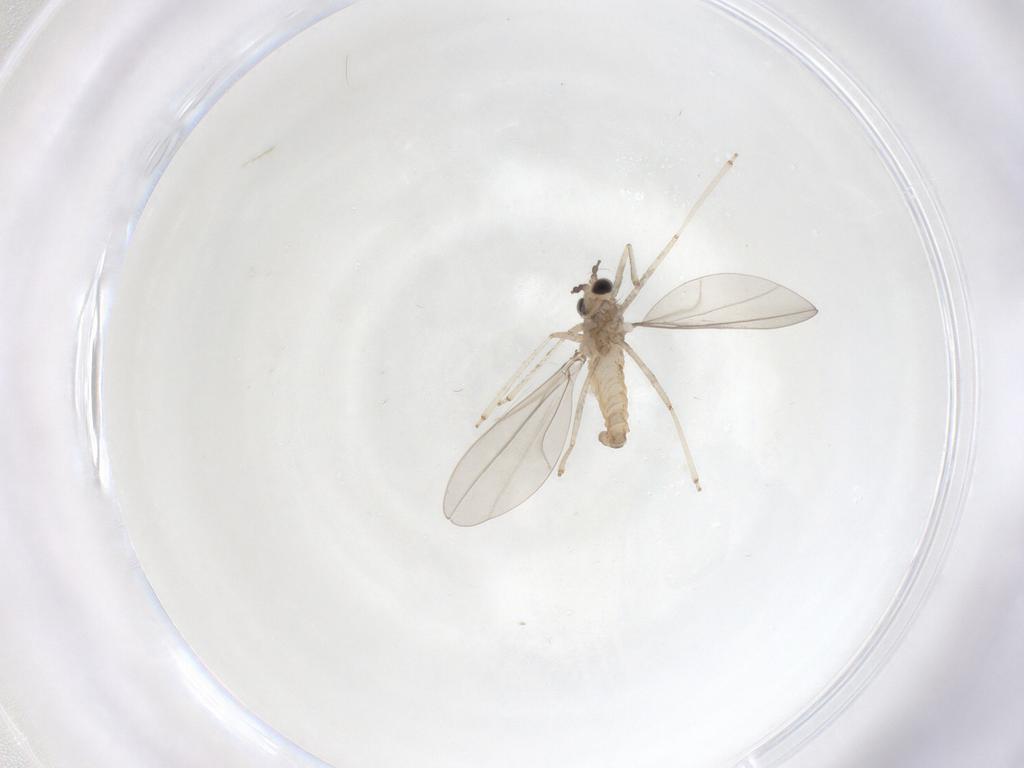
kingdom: Animalia
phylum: Arthropoda
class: Insecta
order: Diptera
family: Cecidomyiidae
